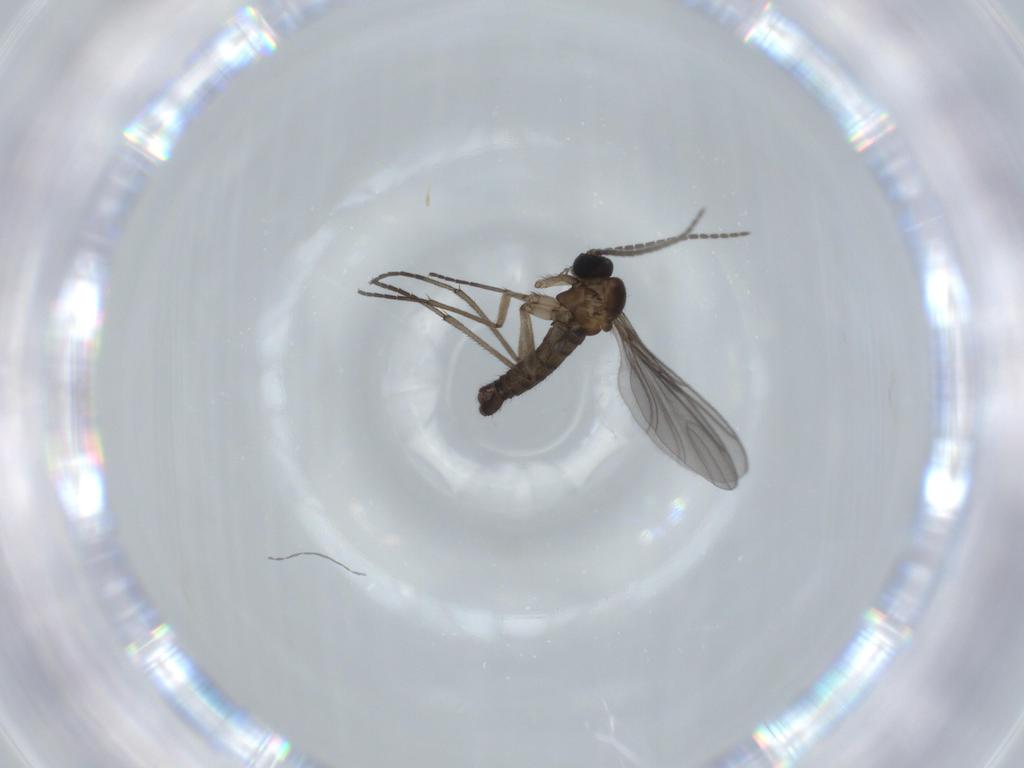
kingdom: Animalia
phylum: Arthropoda
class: Insecta
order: Diptera
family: Sciaridae
